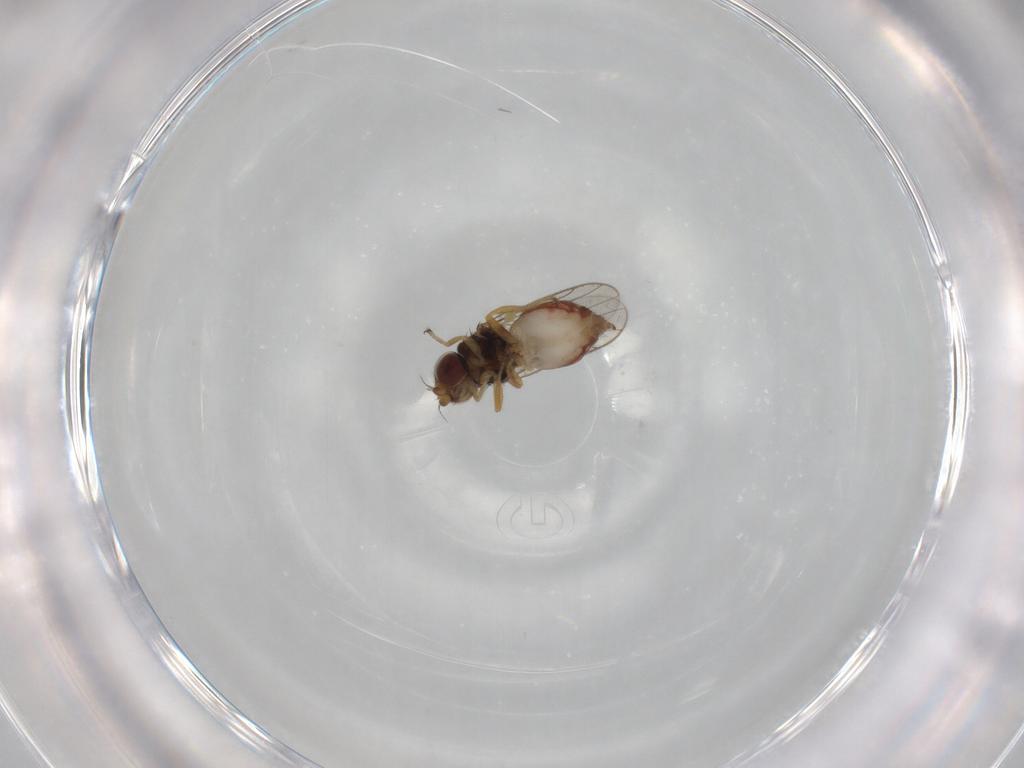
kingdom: Animalia
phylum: Arthropoda
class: Insecta
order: Diptera
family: Chloropidae
